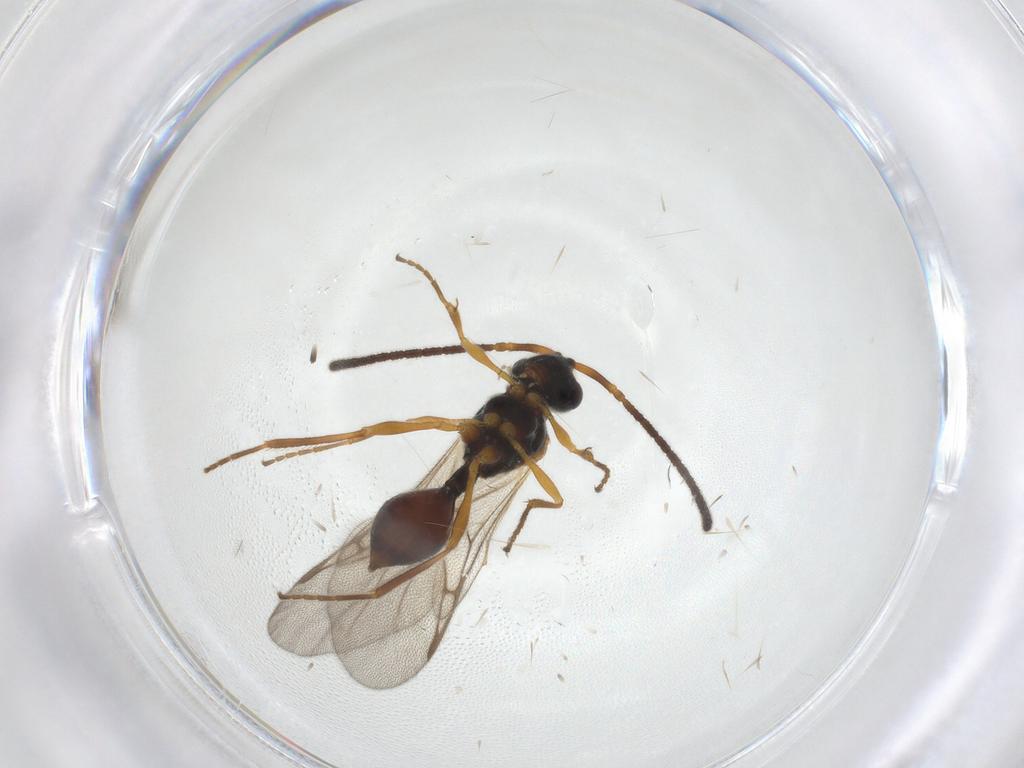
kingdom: Animalia
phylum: Arthropoda
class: Insecta
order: Hymenoptera
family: Diapriidae
